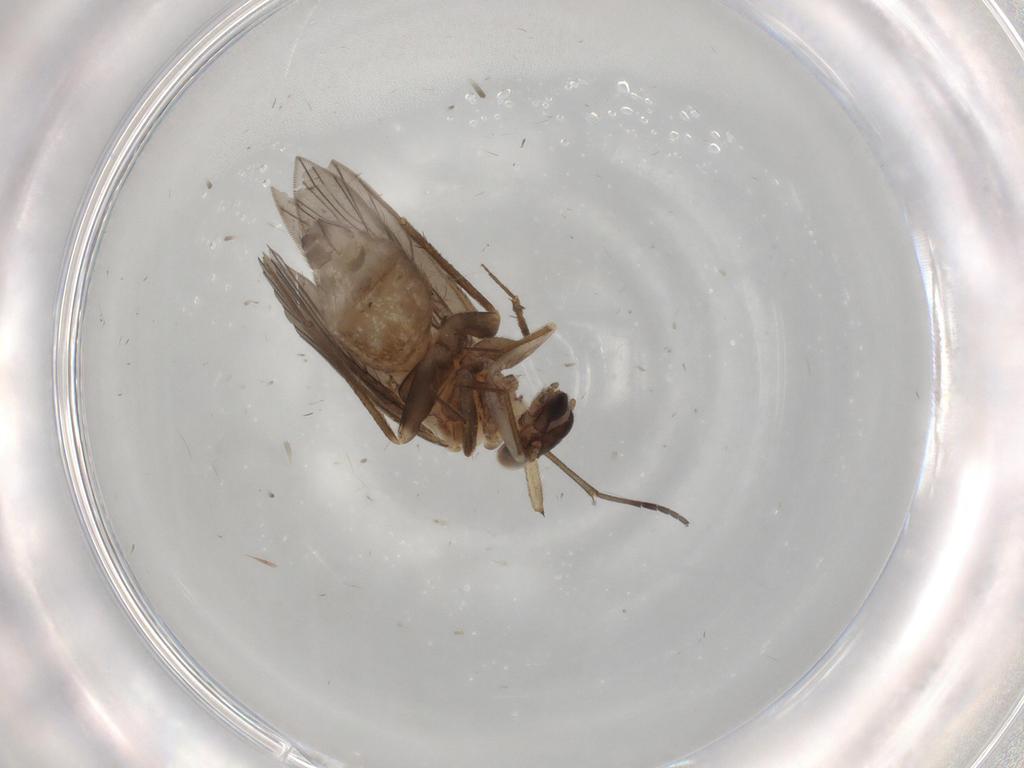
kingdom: Animalia
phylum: Arthropoda
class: Insecta
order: Psocodea
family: Lepidopsocidae
